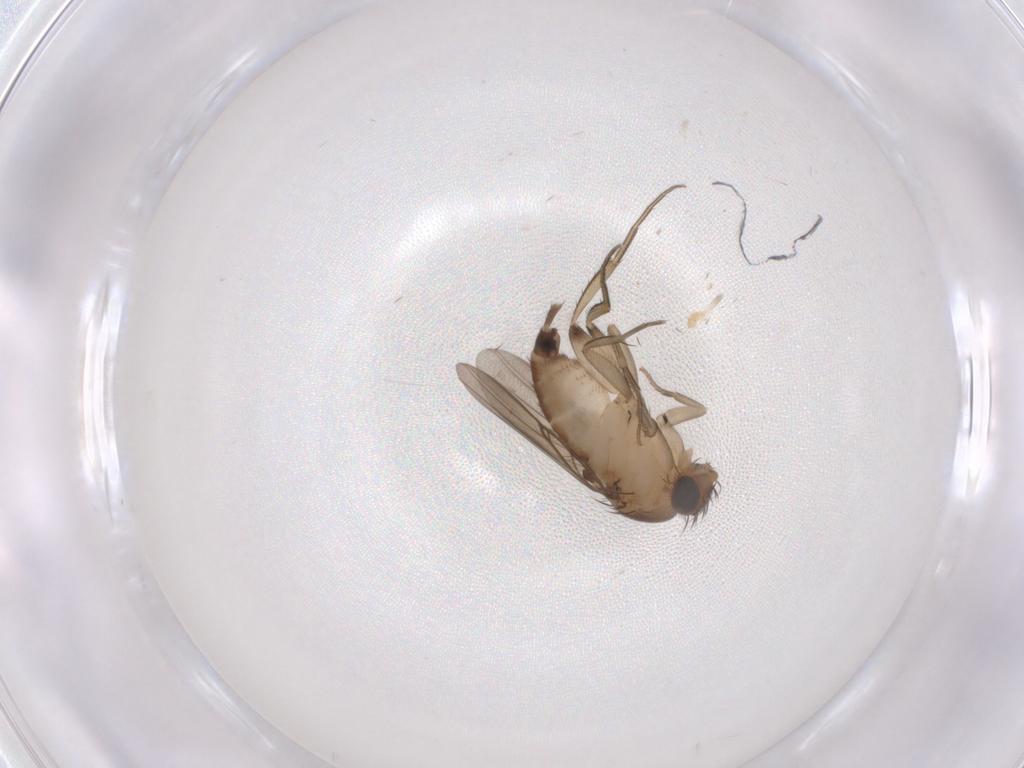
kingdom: Animalia
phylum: Arthropoda
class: Insecta
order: Diptera
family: Phoridae
